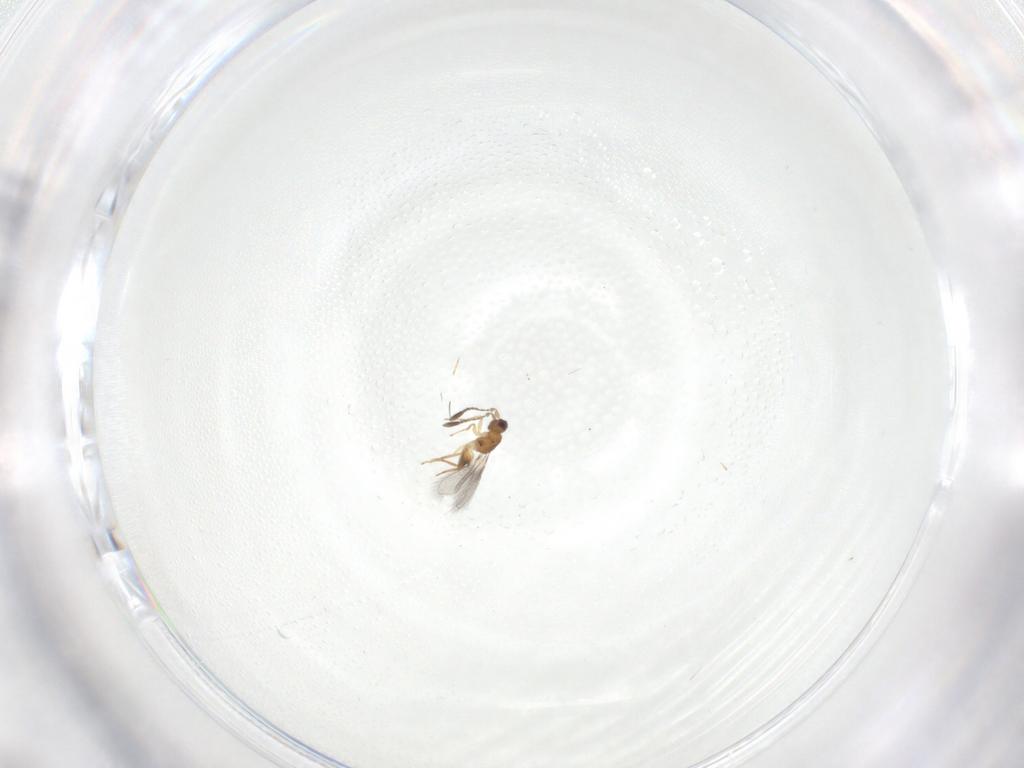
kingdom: Animalia
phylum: Arthropoda
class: Insecta
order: Hymenoptera
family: Mymaridae
